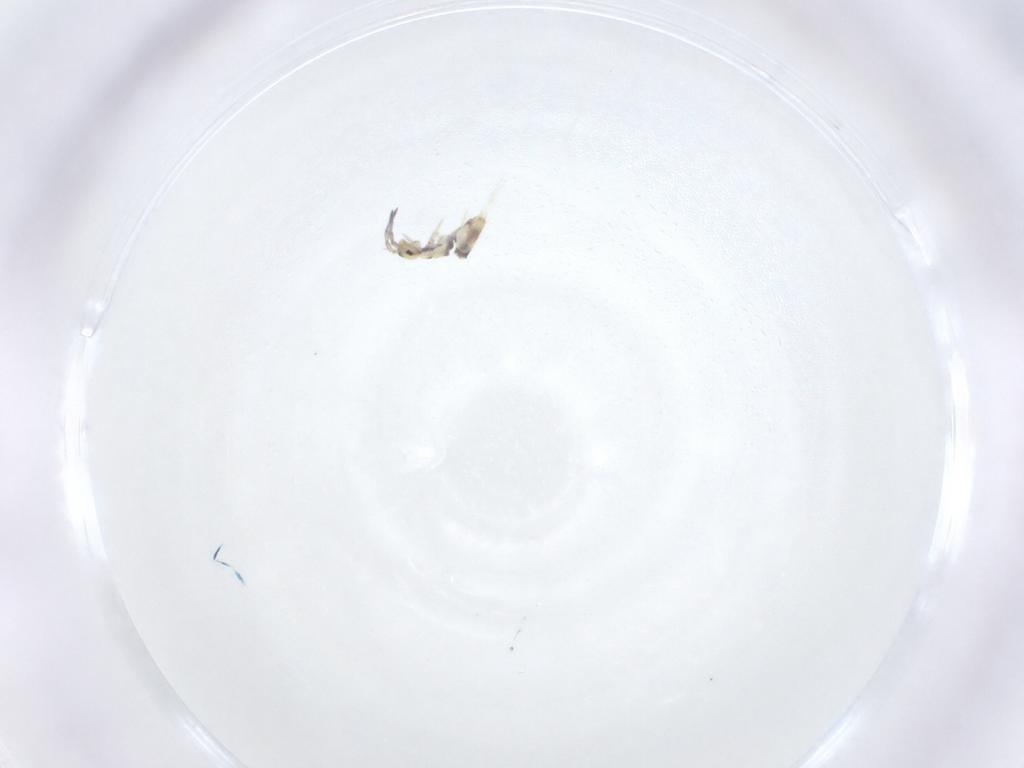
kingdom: Animalia
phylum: Arthropoda
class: Collembola
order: Entomobryomorpha
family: Entomobryidae
